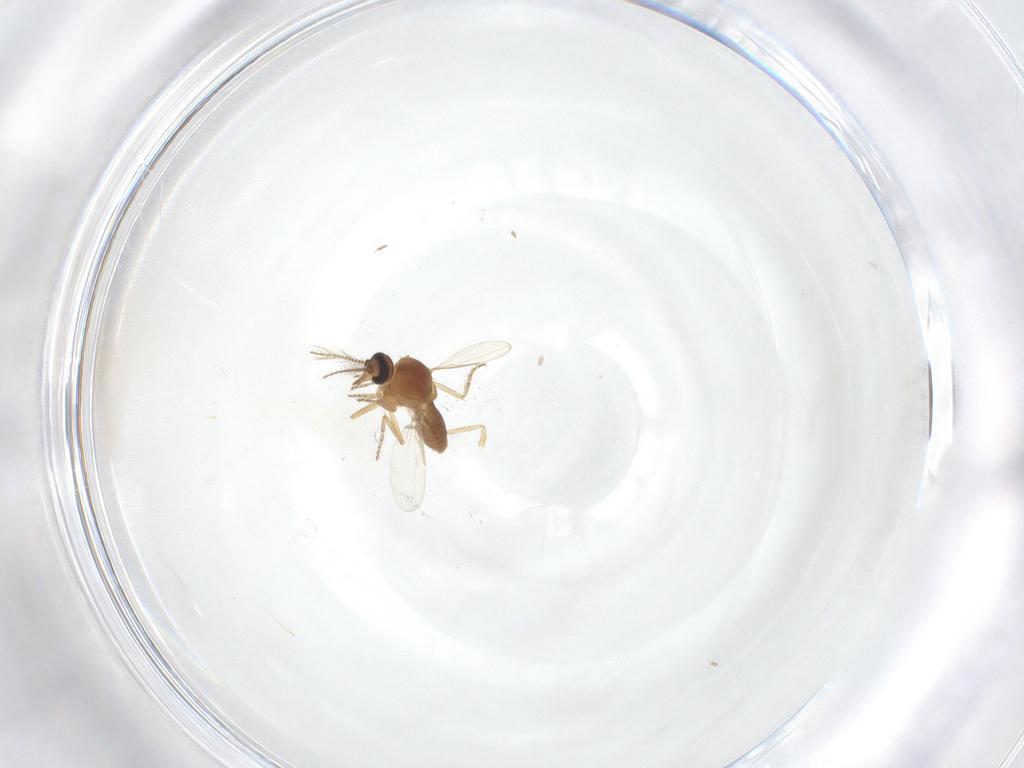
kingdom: Animalia
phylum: Arthropoda
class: Insecta
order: Diptera
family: Ceratopogonidae
